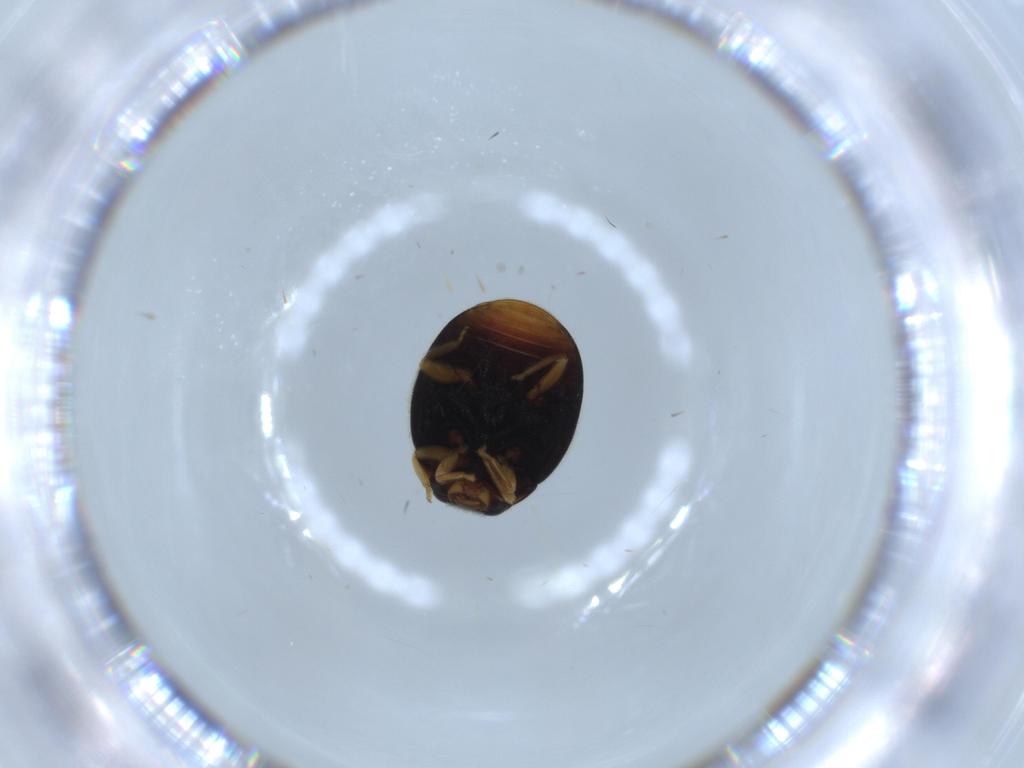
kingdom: Animalia
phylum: Arthropoda
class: Insecta
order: Coleoptera
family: Coccinellidae
